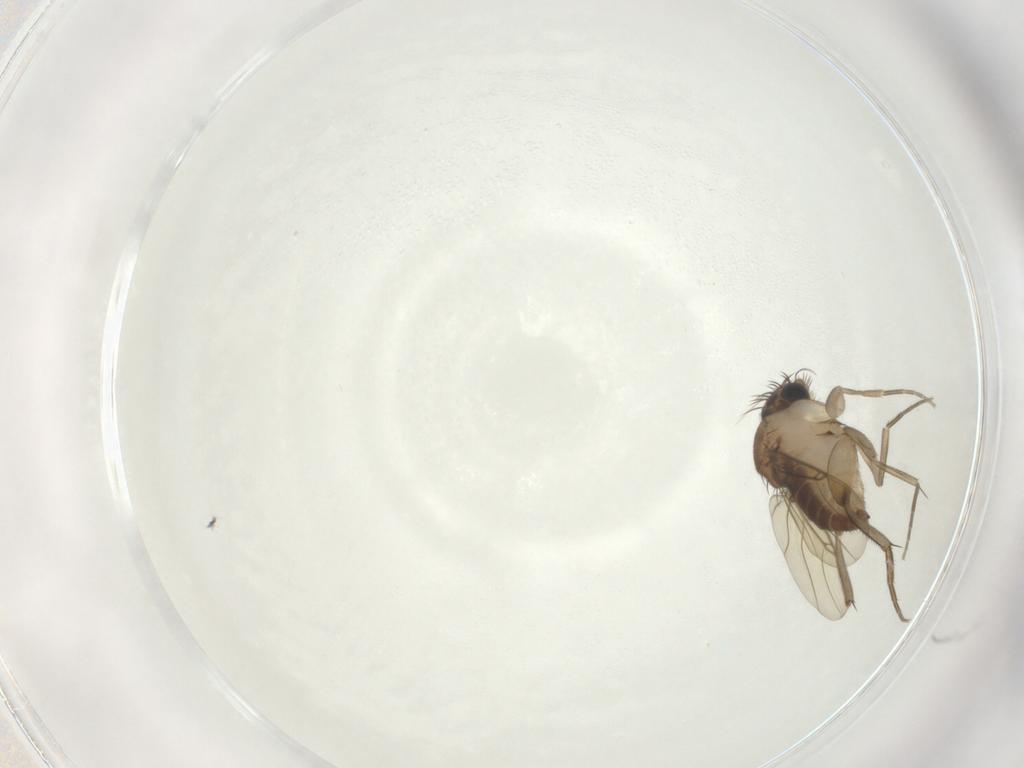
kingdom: Animalia
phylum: Arthropoda
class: Insecta
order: Diptera
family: Phoridae
